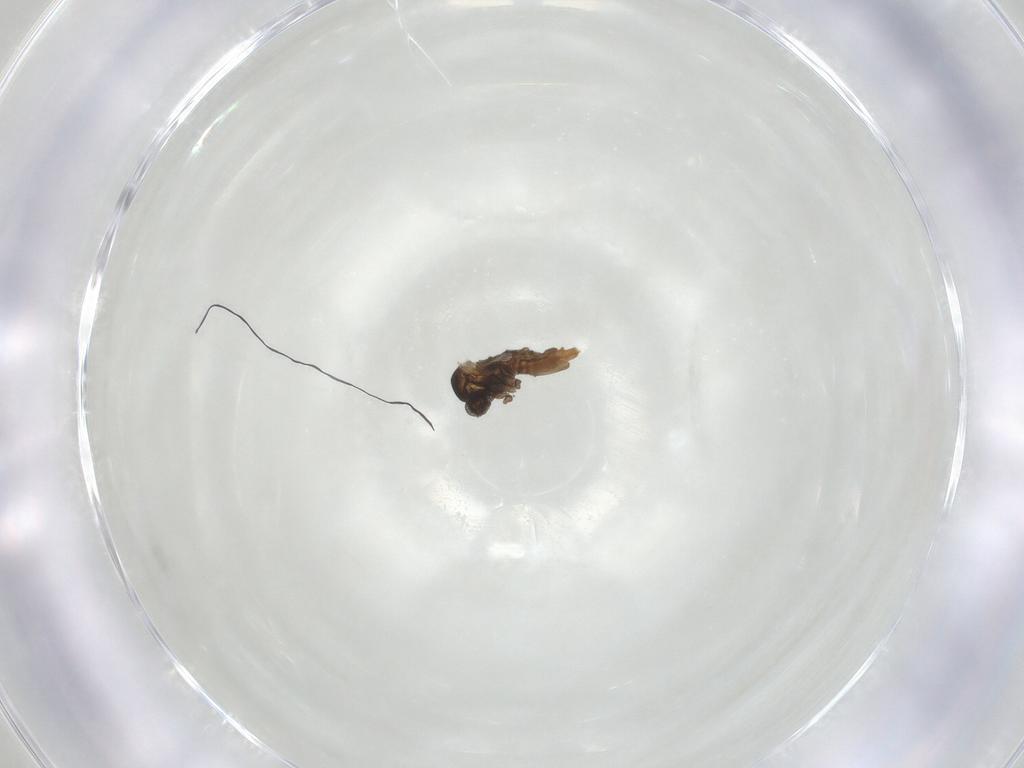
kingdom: Animalia
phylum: Arthropoda
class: Insecta
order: Diptera
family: Cecidomyiidae
